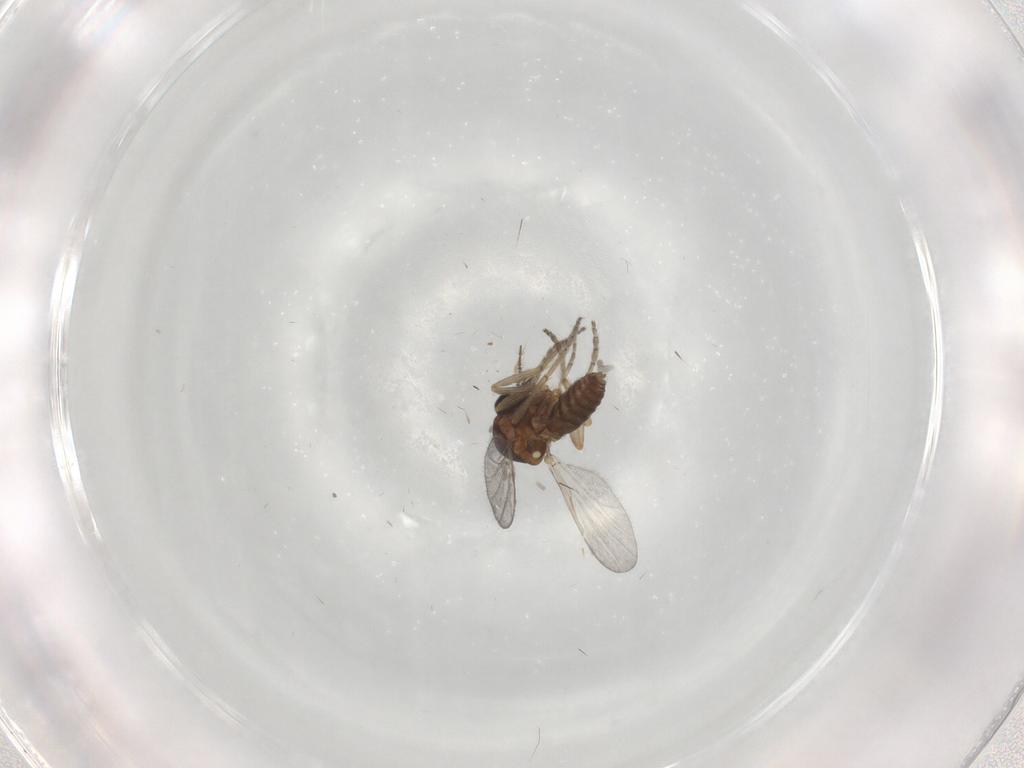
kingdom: Animalia
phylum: Arthropoda
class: Insecta
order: Diptera
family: Ceratopogonidae
